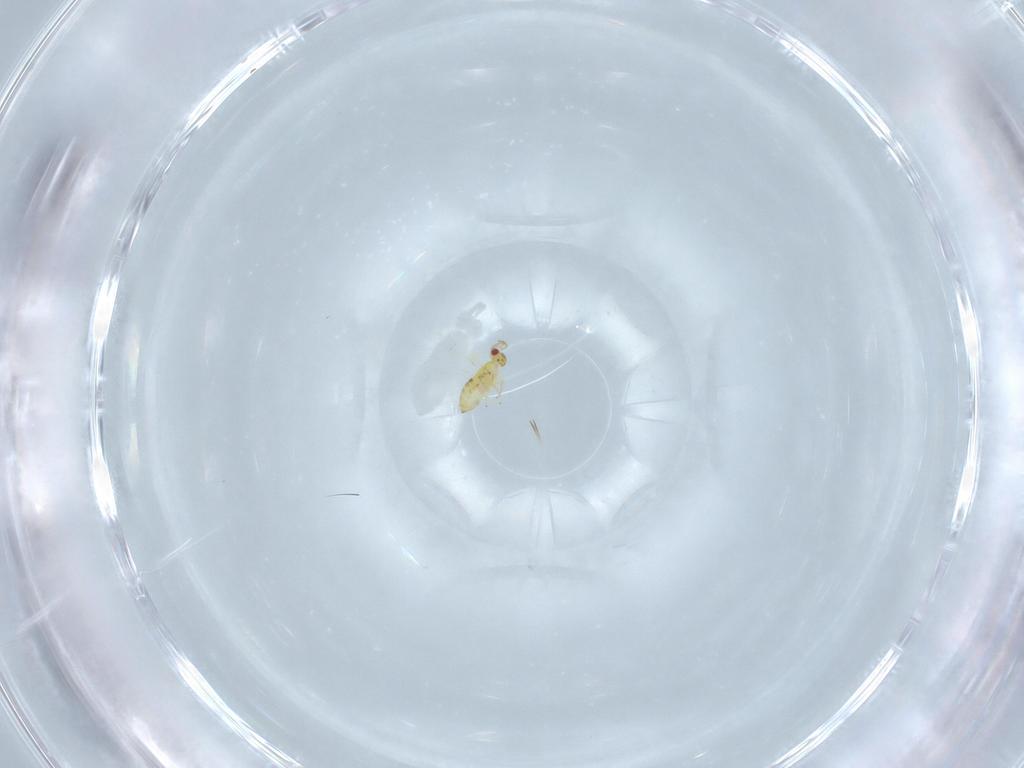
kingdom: Animalia
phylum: Arthropoda
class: Insecta
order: Hymenoptera
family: Trichogrammatidae
